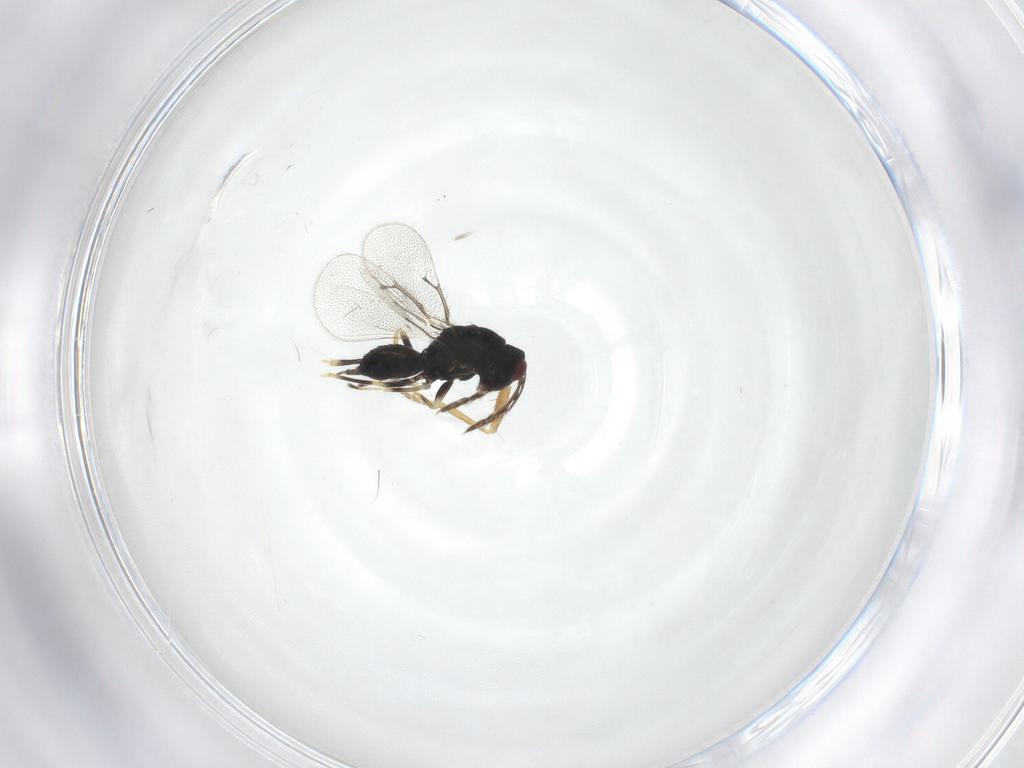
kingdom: Animalia
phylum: Arthropoda
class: Insecta
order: Hymenoptera
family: Eulophidae
